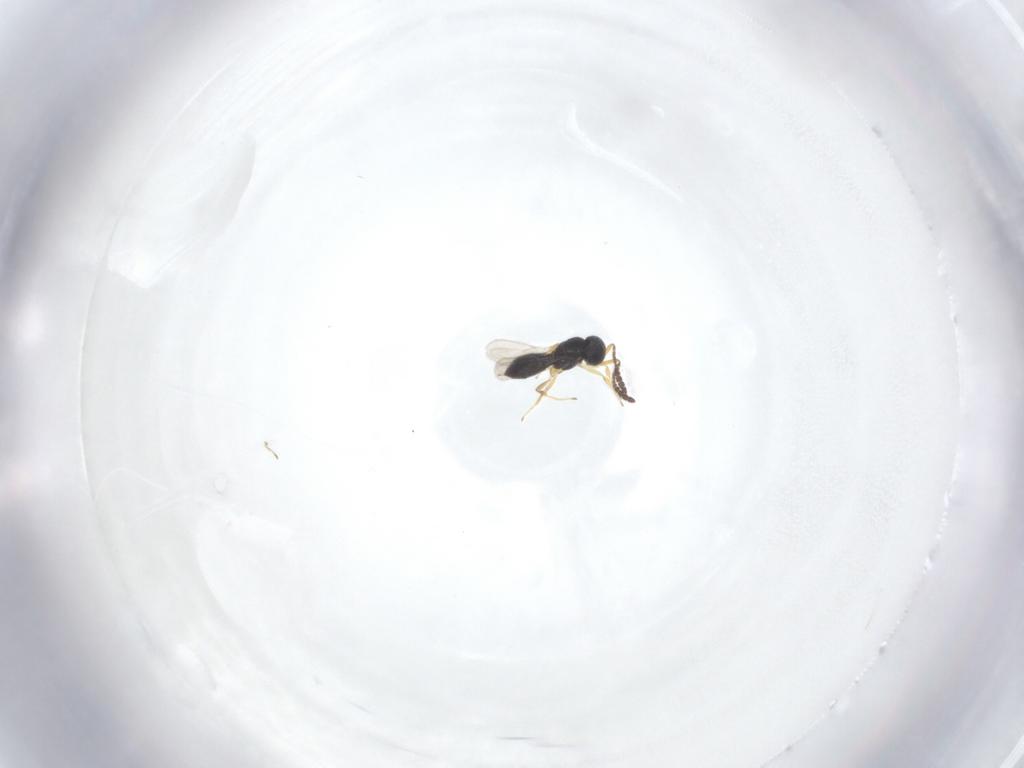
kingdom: Animalia
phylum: Arthropoda
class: Insecta
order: Hymenoptera
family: Scelionidae
